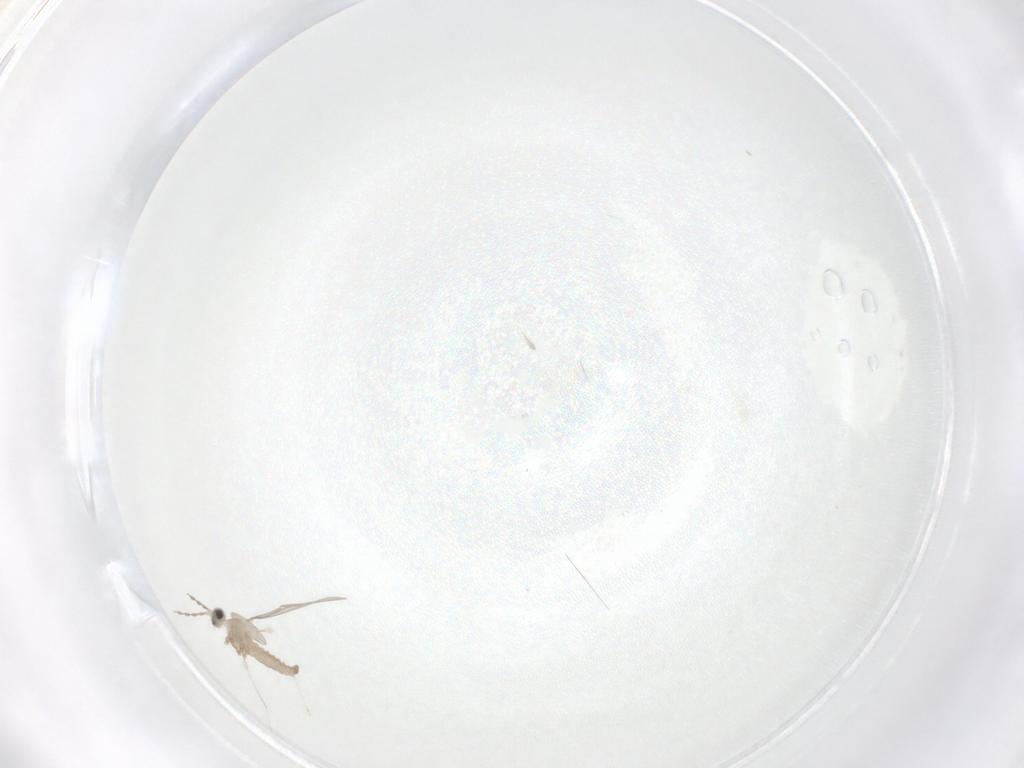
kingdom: Animalia
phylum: Arthropoda
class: Insecta
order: Diptera
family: Cecidomyiidae
